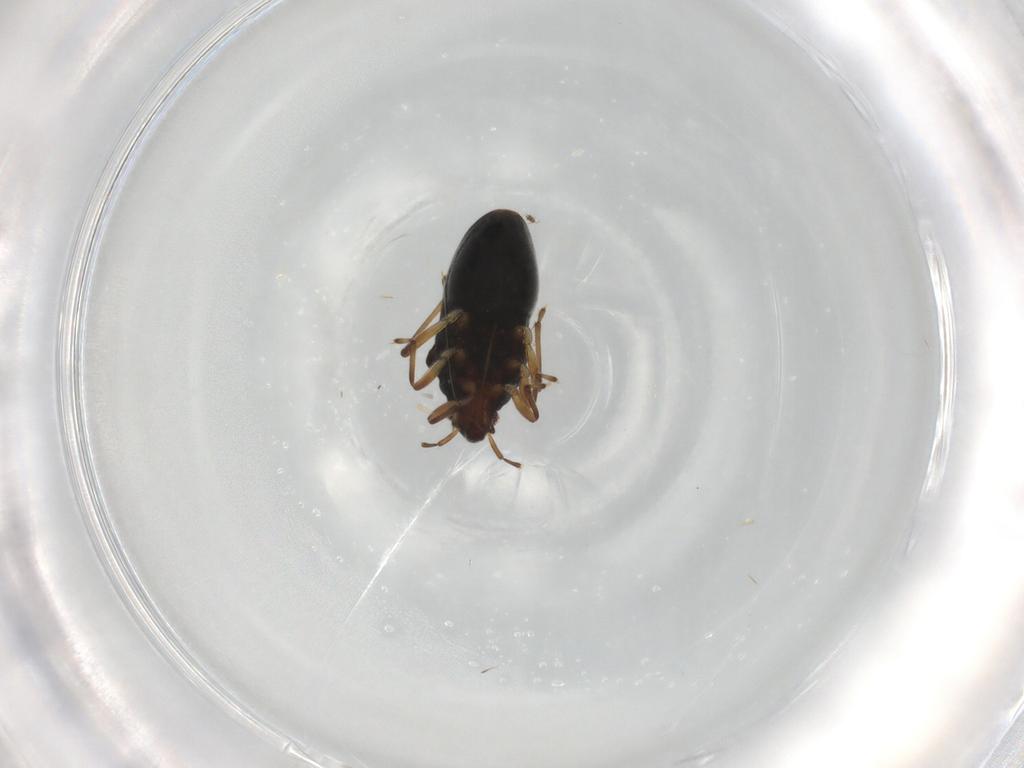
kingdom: Animalia
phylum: Arthropoda
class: Insecta
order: Hemiptera
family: Hebridae
